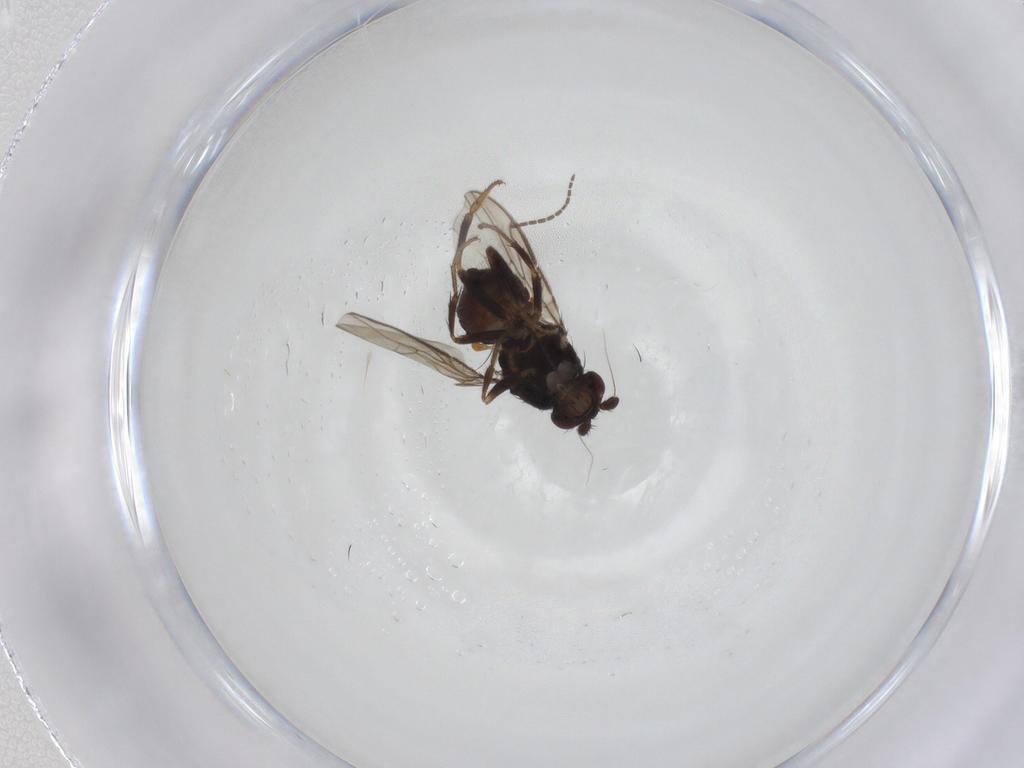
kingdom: Animalia
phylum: Arthropoda
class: Insecta
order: Diptera
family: Sphaeroceridae
